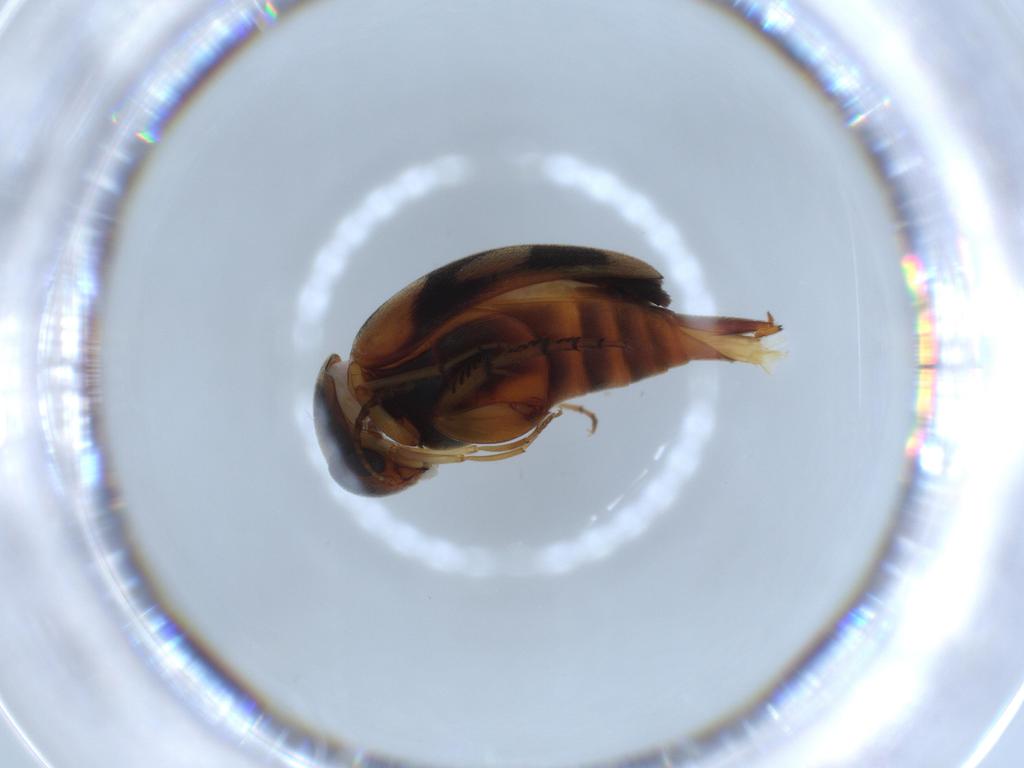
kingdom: Animalia
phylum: Arthropoda
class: Insecta
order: Coleoptera
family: Mordellidae
